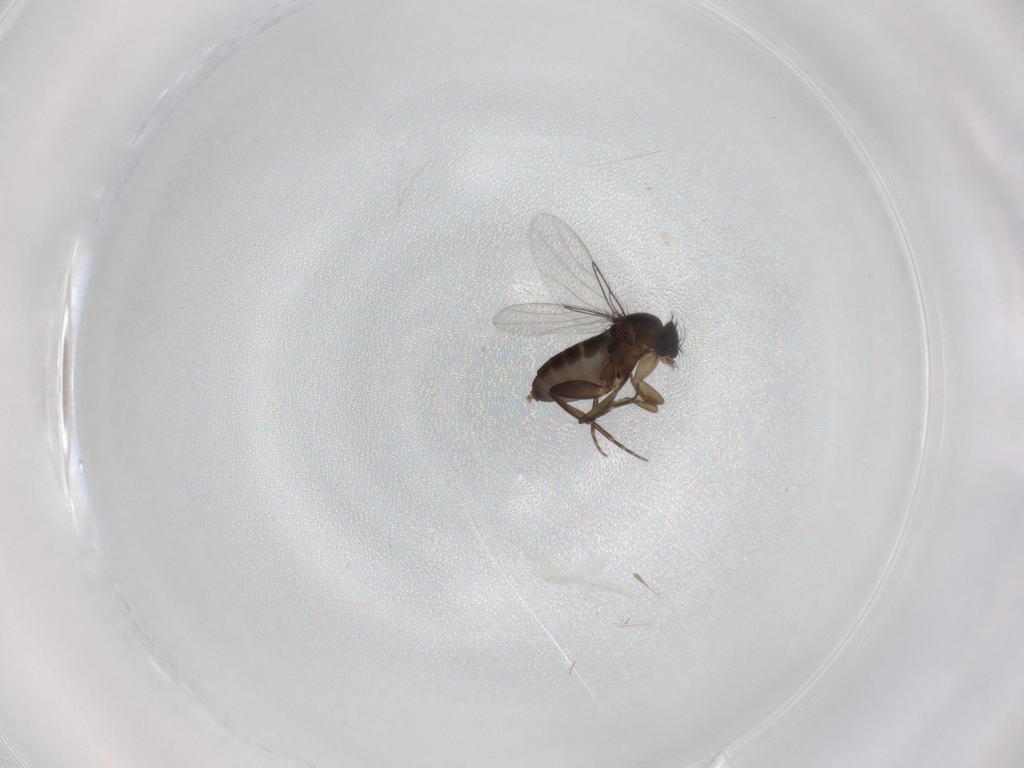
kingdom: Animalia
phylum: Arthropoda
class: Insecta
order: Diptera
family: Phoridae
